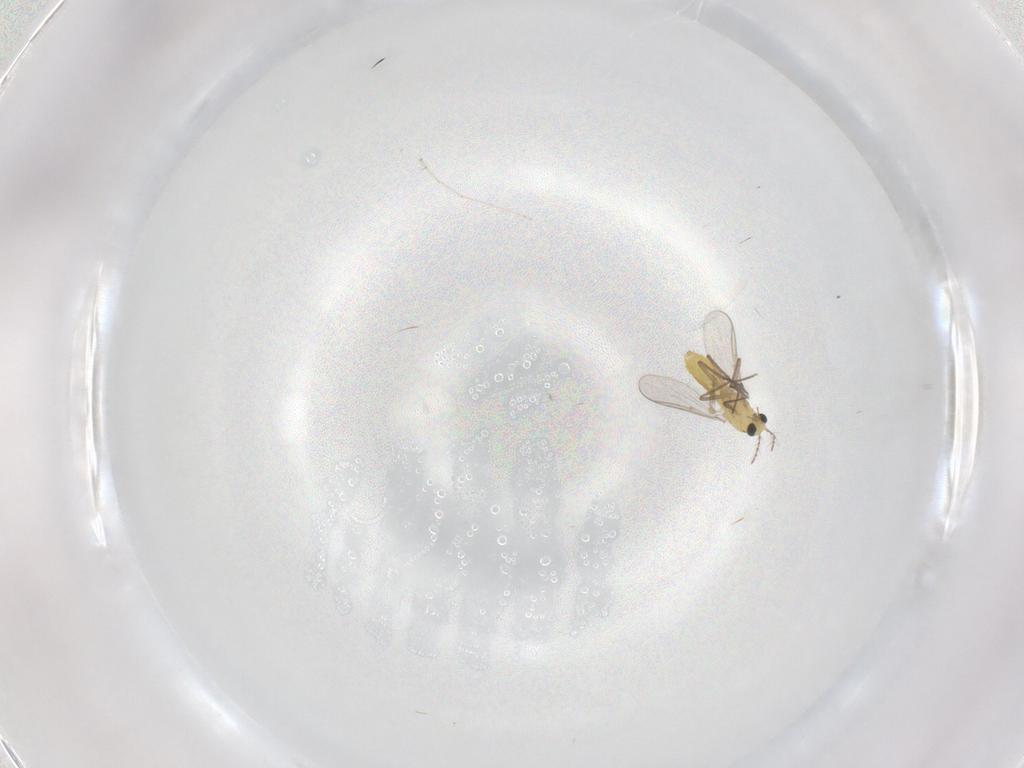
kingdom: Animalia
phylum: Arthropoda
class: Insecta
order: Diptera
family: Chironomidae
